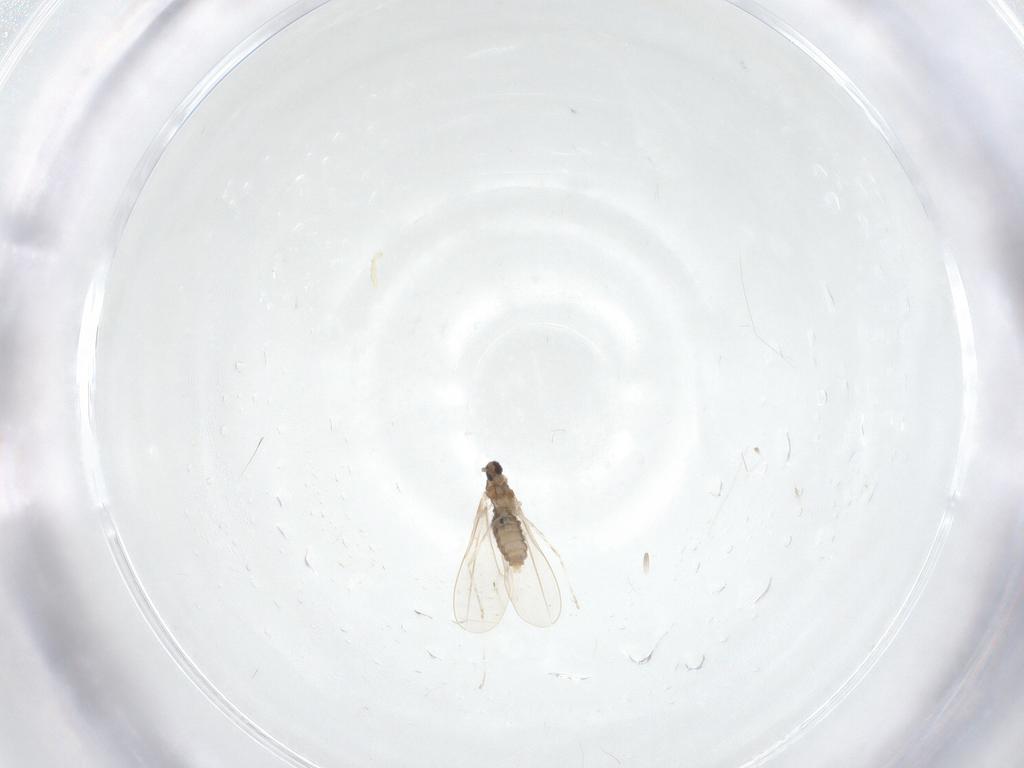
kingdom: Animalia
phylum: Arthropoda
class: Insecta
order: Diptera
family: Cecidomyiidae
